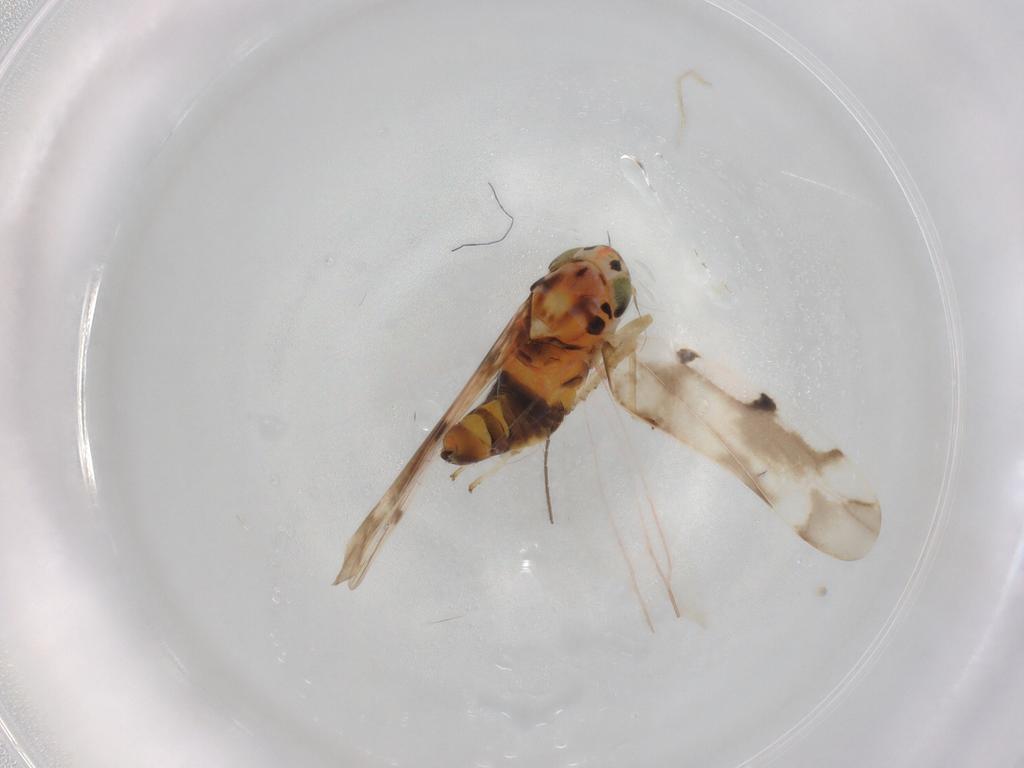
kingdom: Animalia
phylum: Arthropoda
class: Insecta
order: Hemiptera
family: Cicadellidae
